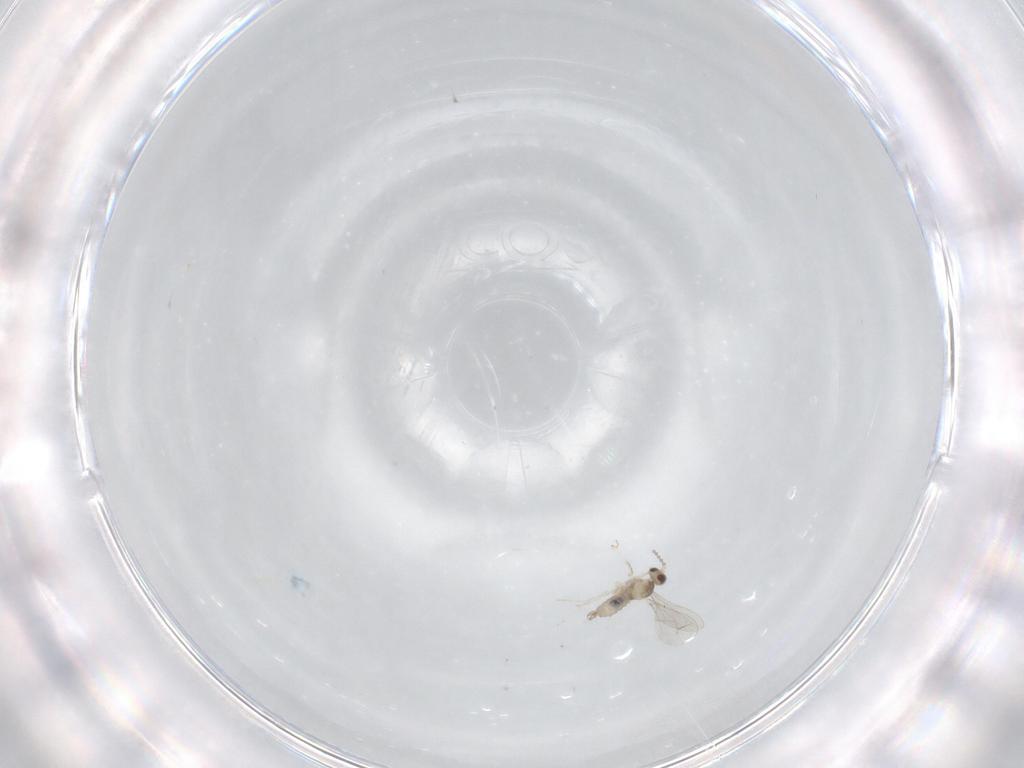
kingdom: Animalia
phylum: Arthropoda
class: Insecta
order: Diptera
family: Cecidomyiidae
